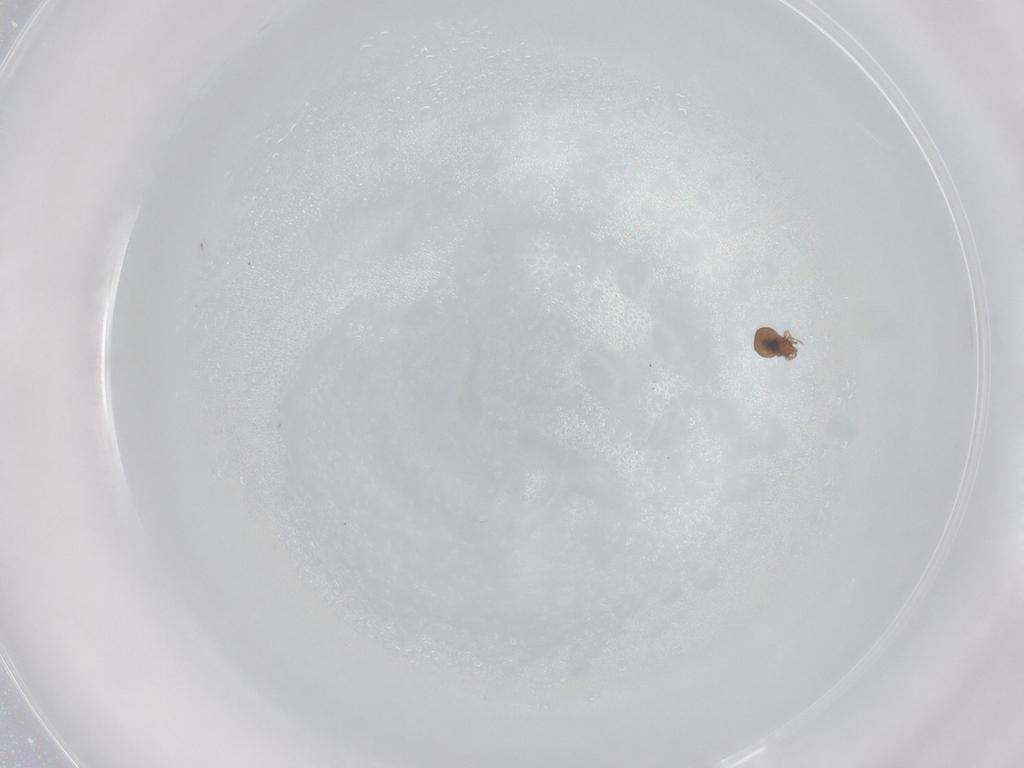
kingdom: Animalia
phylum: Arthropoda
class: Arachnida
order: Sarcoptiformes
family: Oribatulidae
